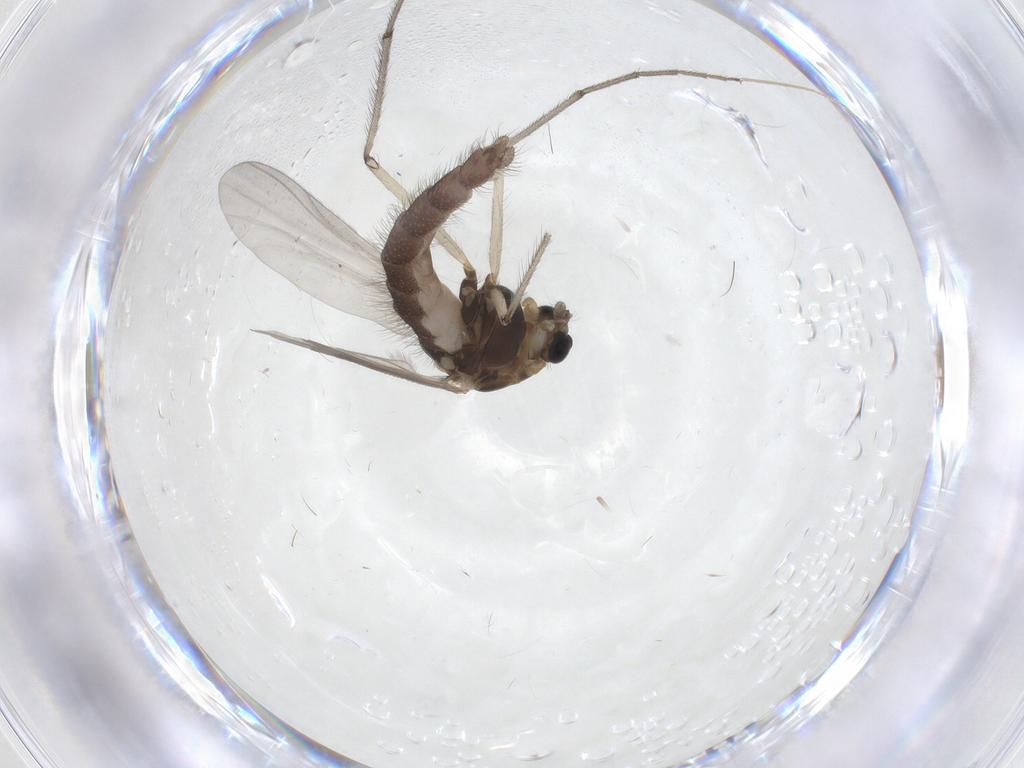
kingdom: Animalia
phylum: Arthropoda
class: Insecta
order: Diptera
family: Chironomidae
